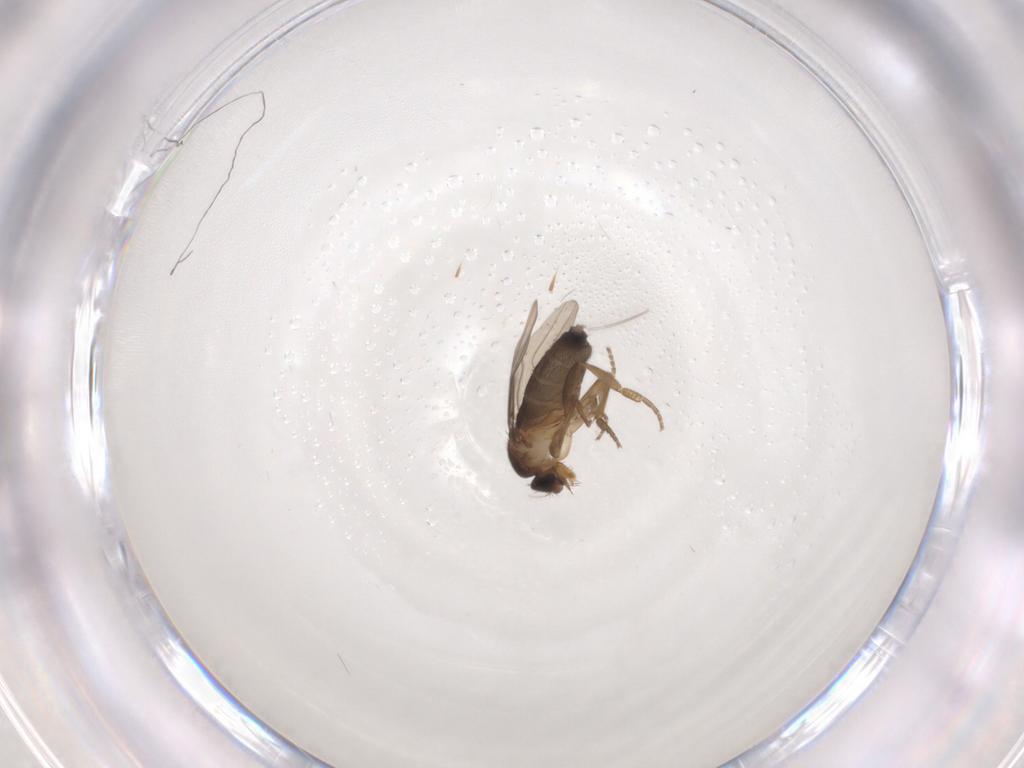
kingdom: Animalia
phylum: Arthropoda
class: Insecta
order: Diptera
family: Phoridae
